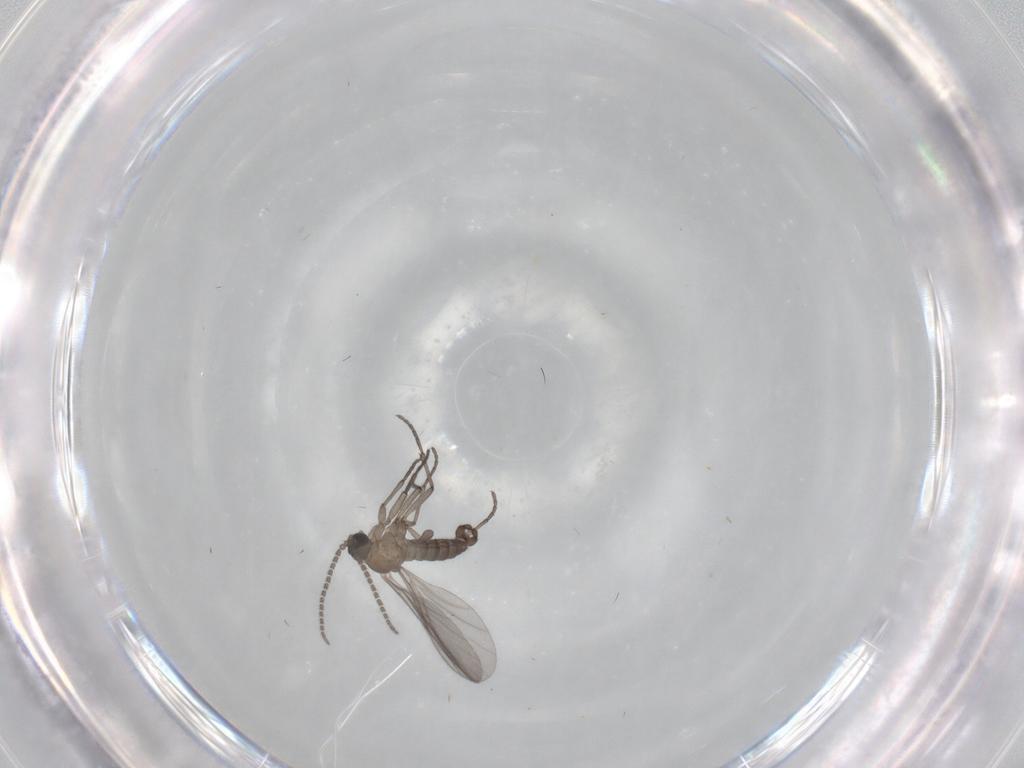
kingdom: Animalia
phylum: Arthropoda
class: Insecta
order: Diptera
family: Sciaridae
